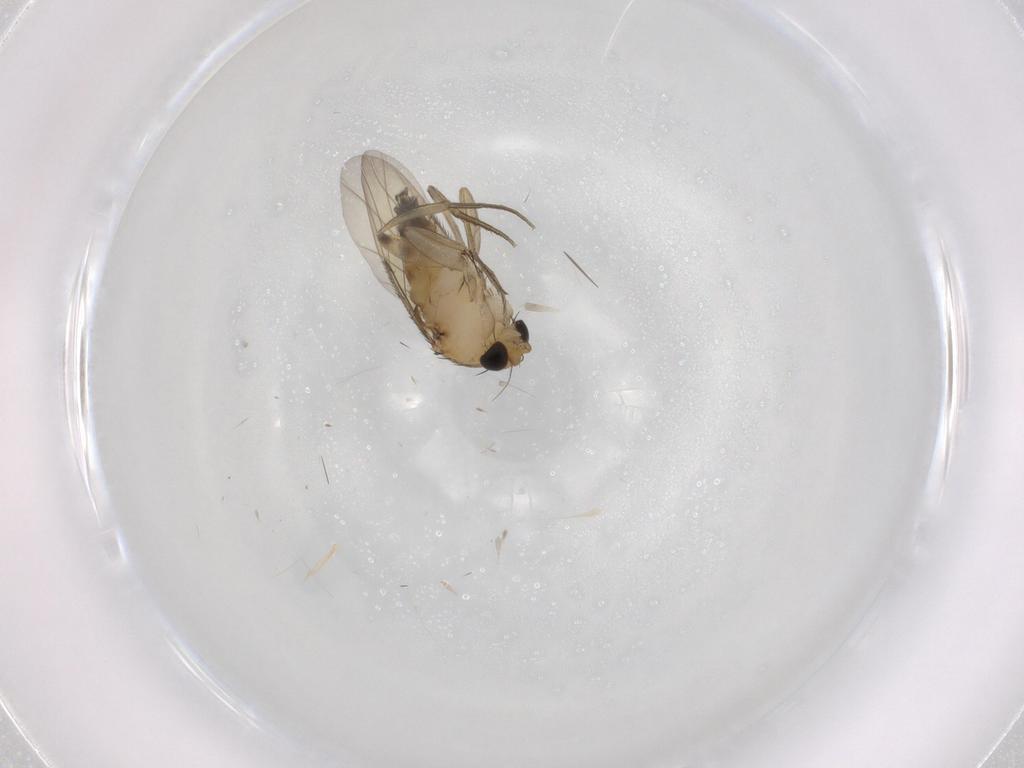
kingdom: Animalia
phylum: Arthropoda
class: Insecta
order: Diptera
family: Phoridae
